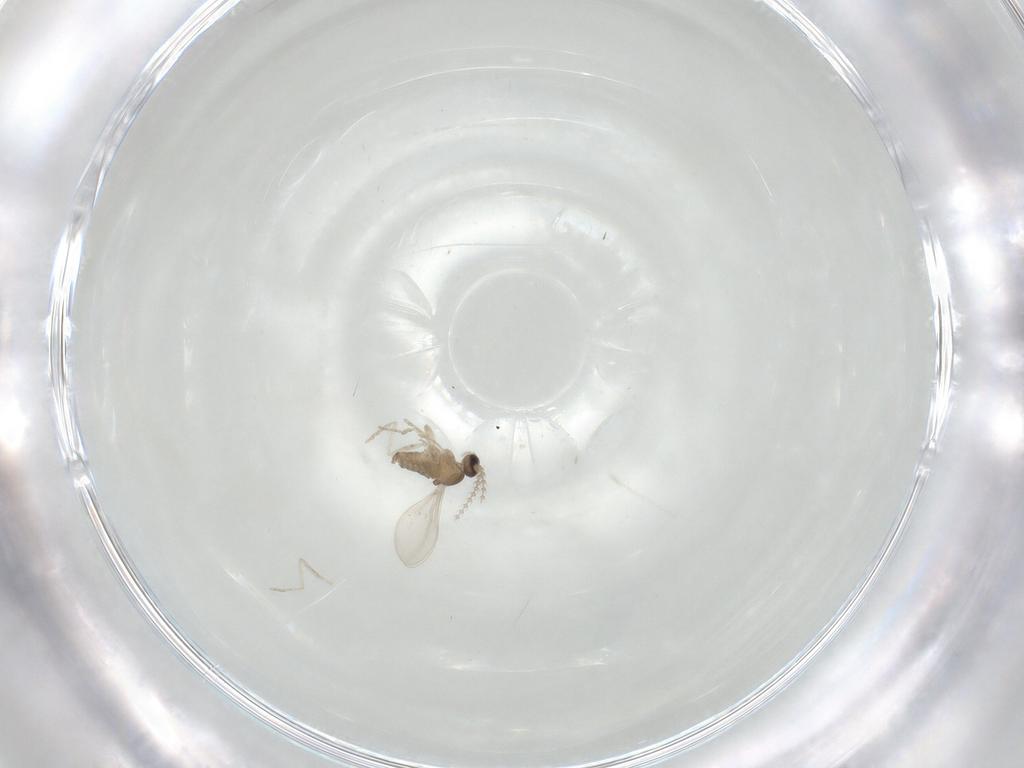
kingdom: Animalia
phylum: Arthropoda
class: Insecta
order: Diptera
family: Cecidomyiidae
